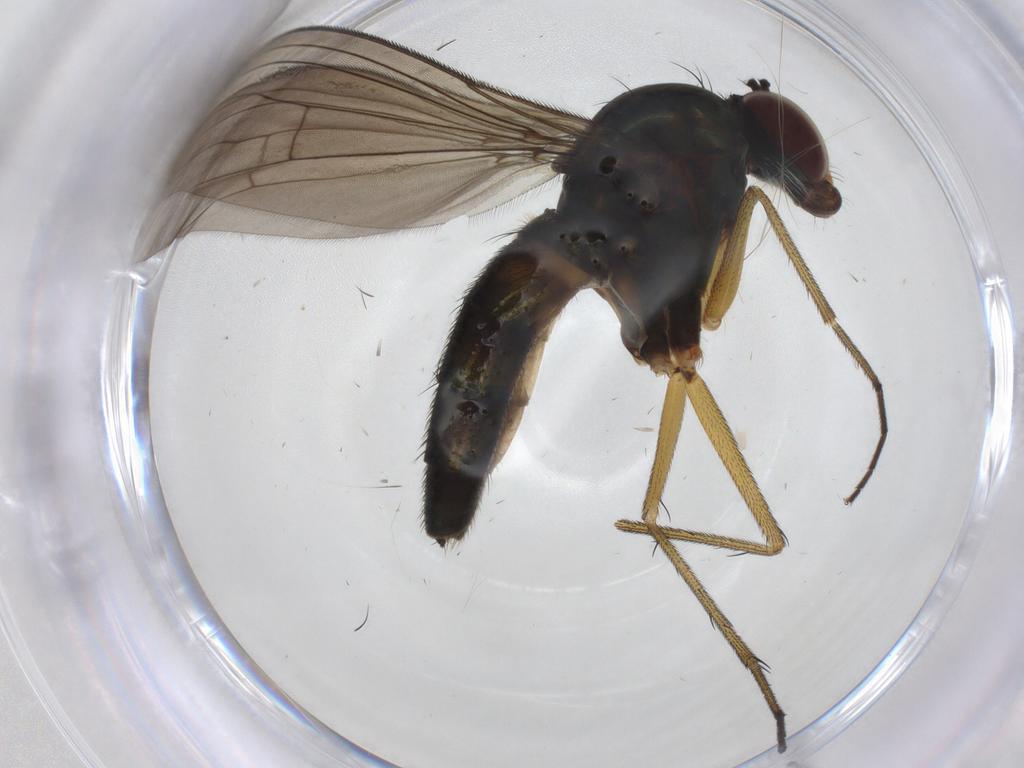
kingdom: Animalia
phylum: Arthropoda
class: Insecta
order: Diptera
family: Dolichopodidae
